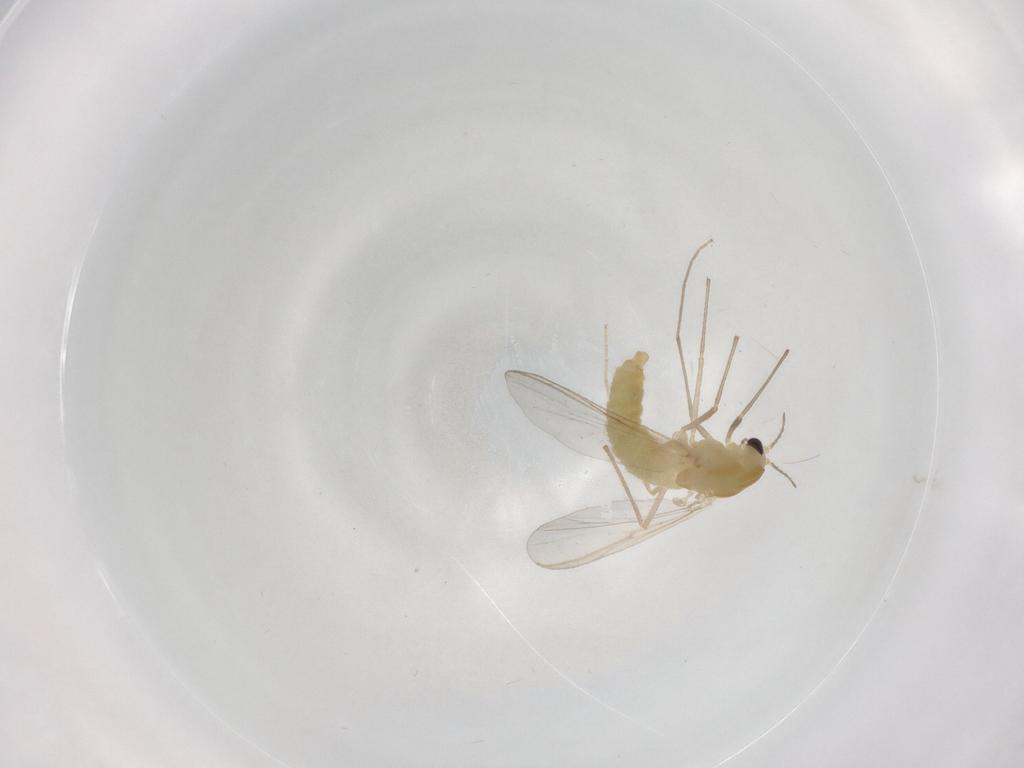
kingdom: Animalia
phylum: Arthropoda
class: Insecta
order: Diptera
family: Chironomidae
